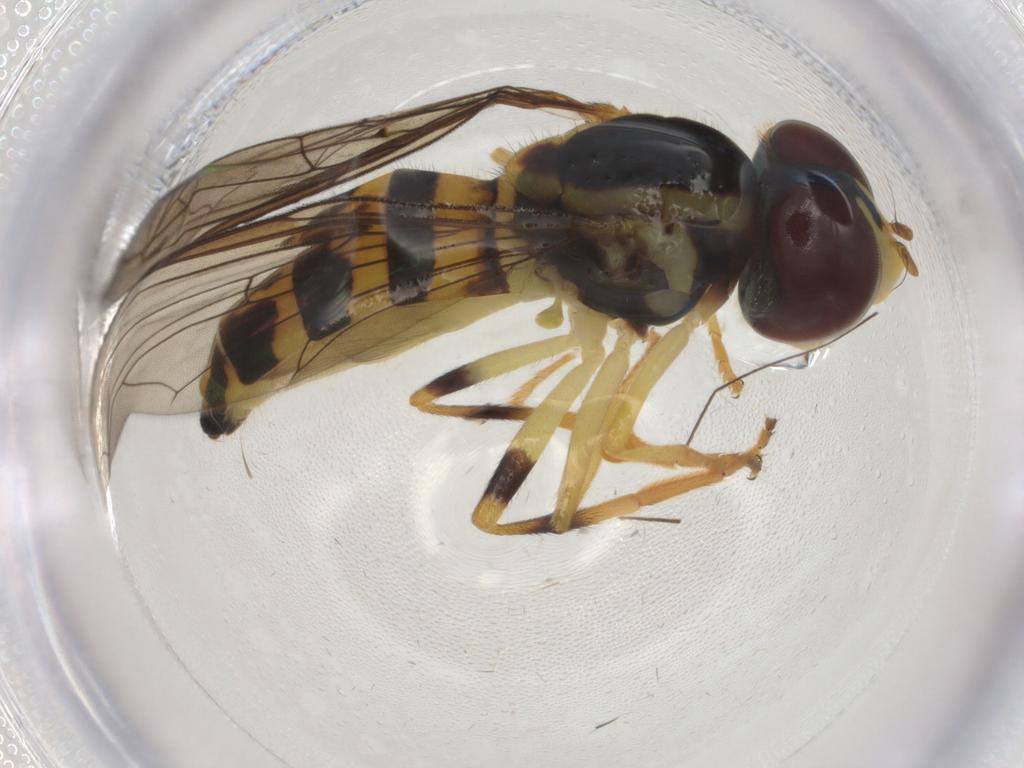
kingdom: Animalia
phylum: Arthropoda
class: Insecta
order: Diptera
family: Syrphidae
